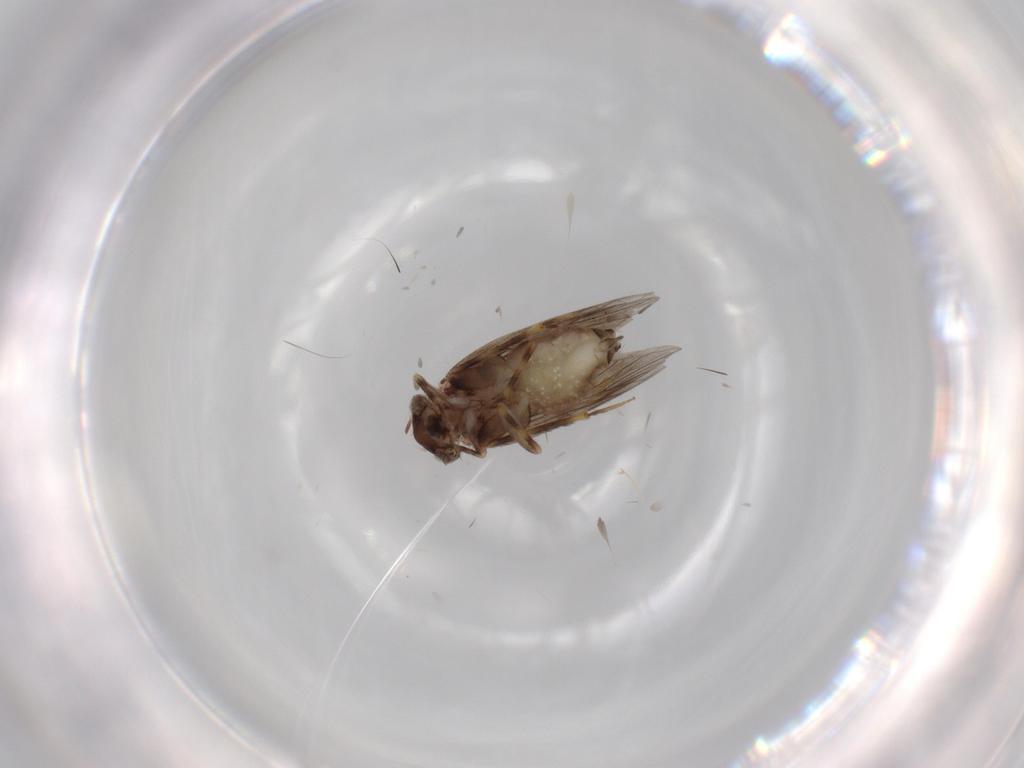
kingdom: Animalia
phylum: Arthropoda
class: Insecta
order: Psocodea
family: Lepidopsocidae
